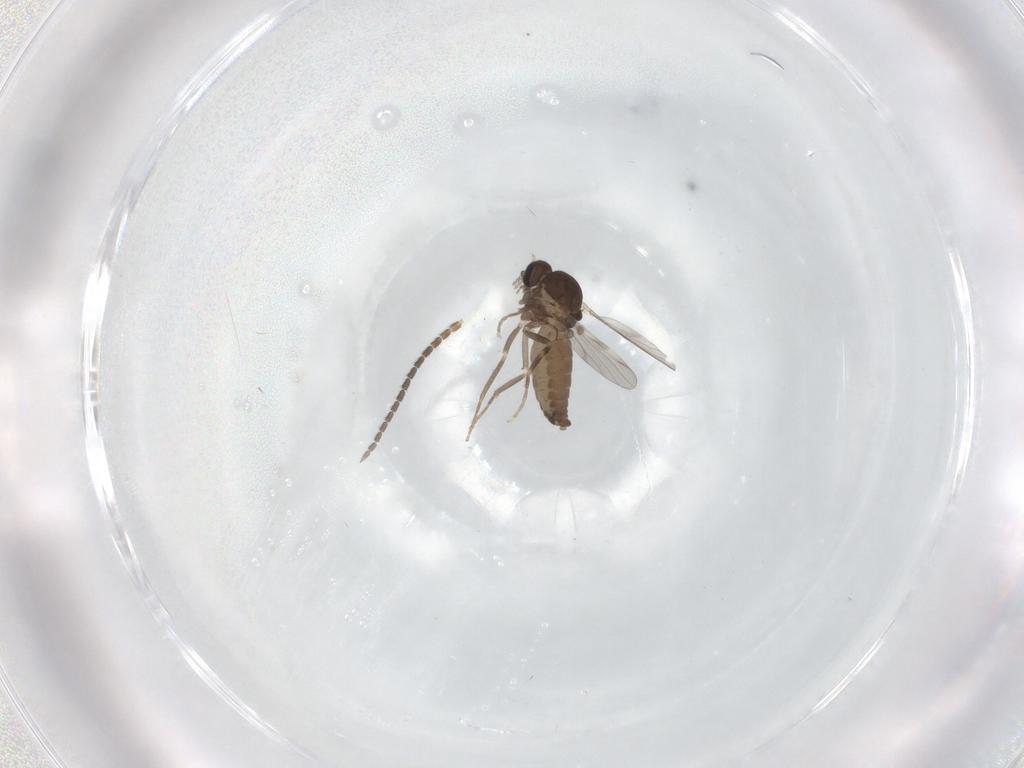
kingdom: Animalia
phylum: Arthropoda
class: Insecta
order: Diptera
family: Ceratopogonidae
